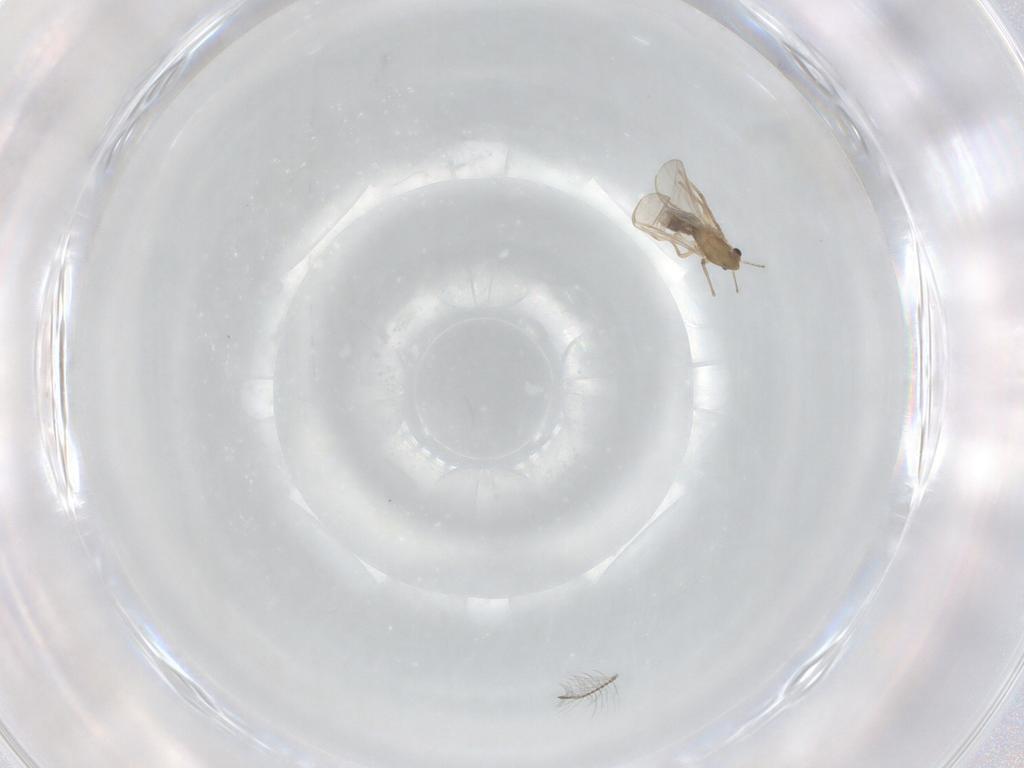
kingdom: Animalia
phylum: Arthropoda
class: Insecta
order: Diptera
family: Chironomidae
